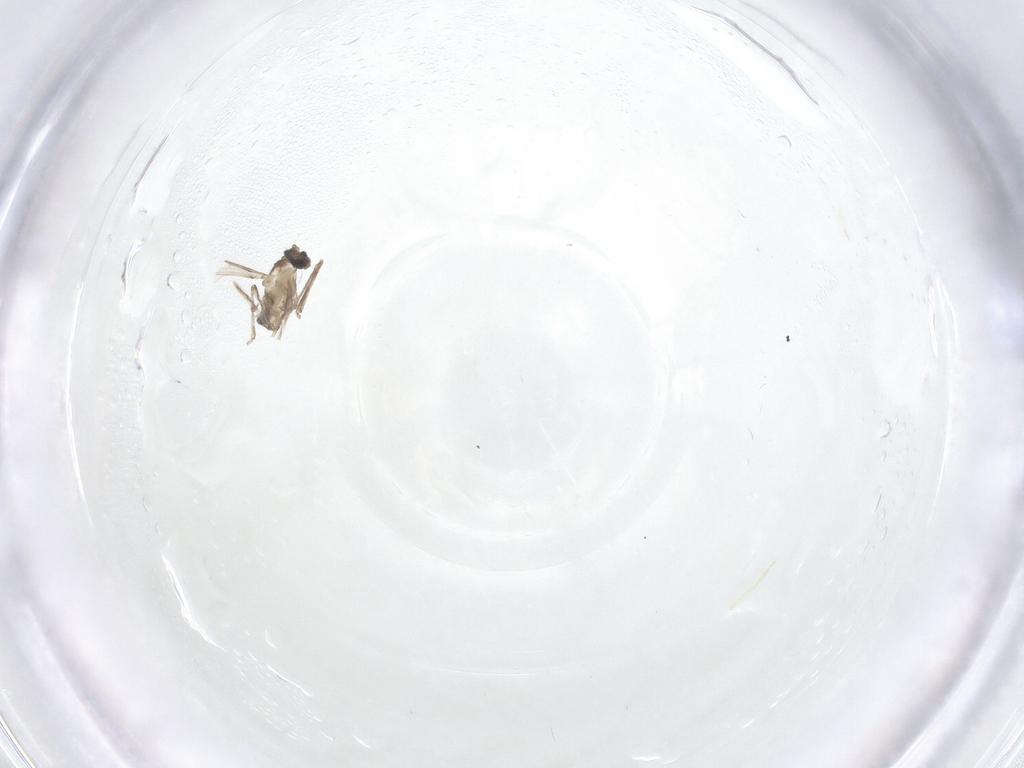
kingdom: Animalia
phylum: Arthropoda
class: Insecta
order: Diptera
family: Cecidomyiidae
